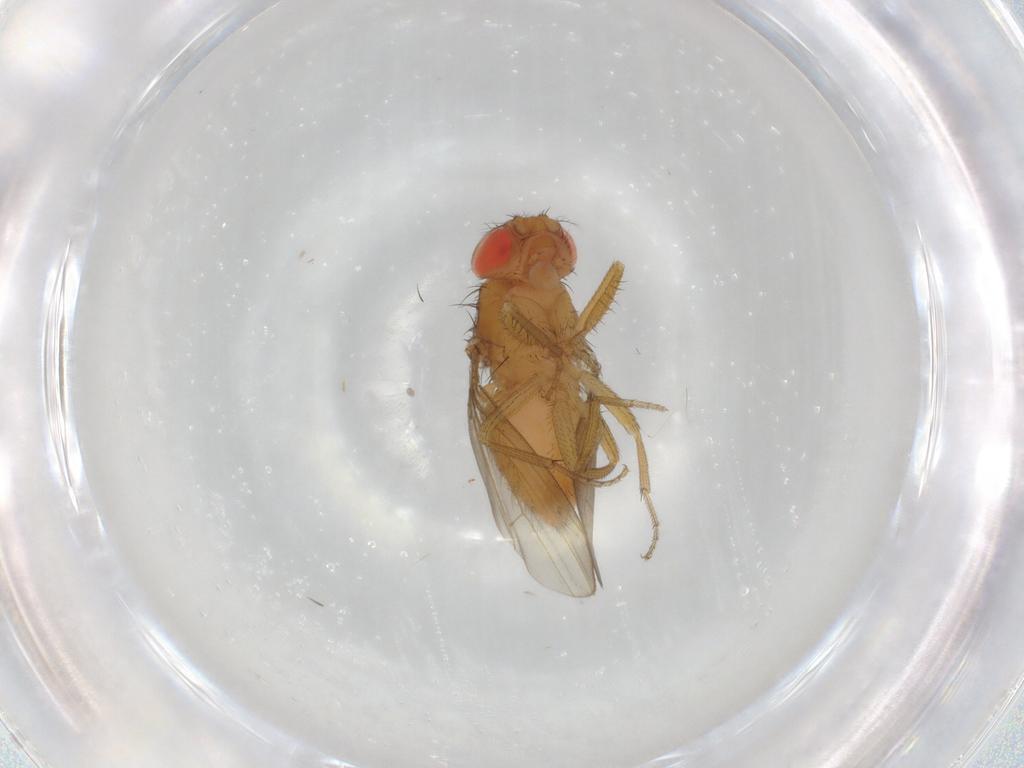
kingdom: Animalia
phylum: Arthropoda
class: Insecta
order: Diptera
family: Drosophilidae
